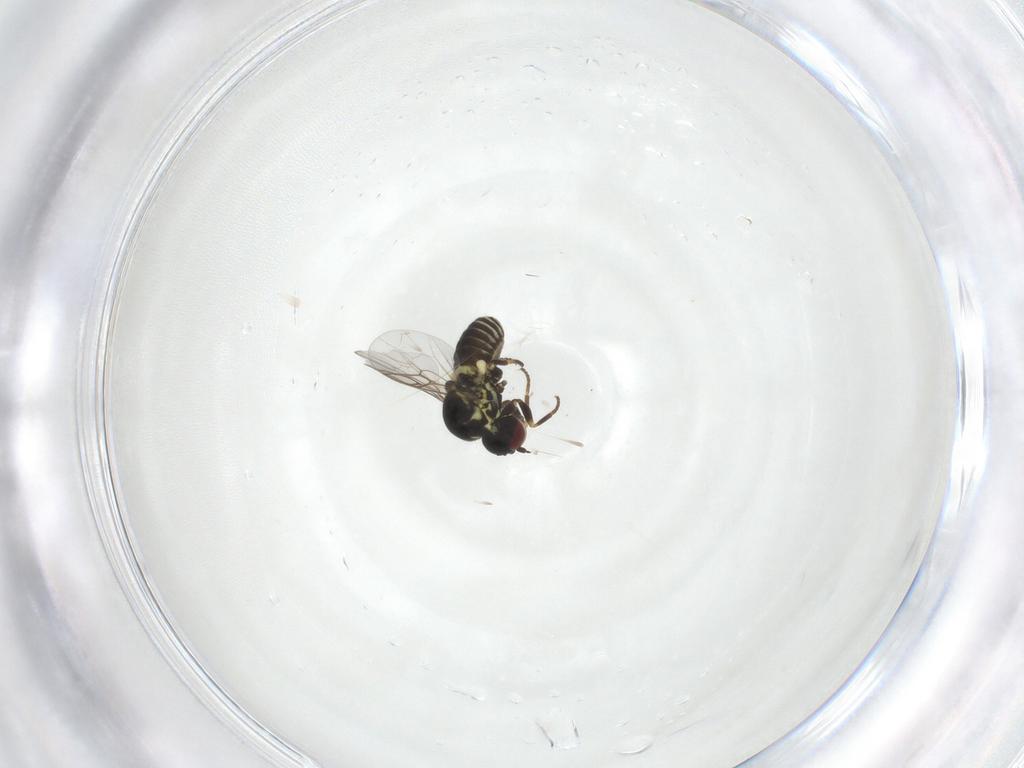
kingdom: Animalia
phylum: Arthropoda
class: Insecta
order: Diptera
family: Mythicomyiidae
